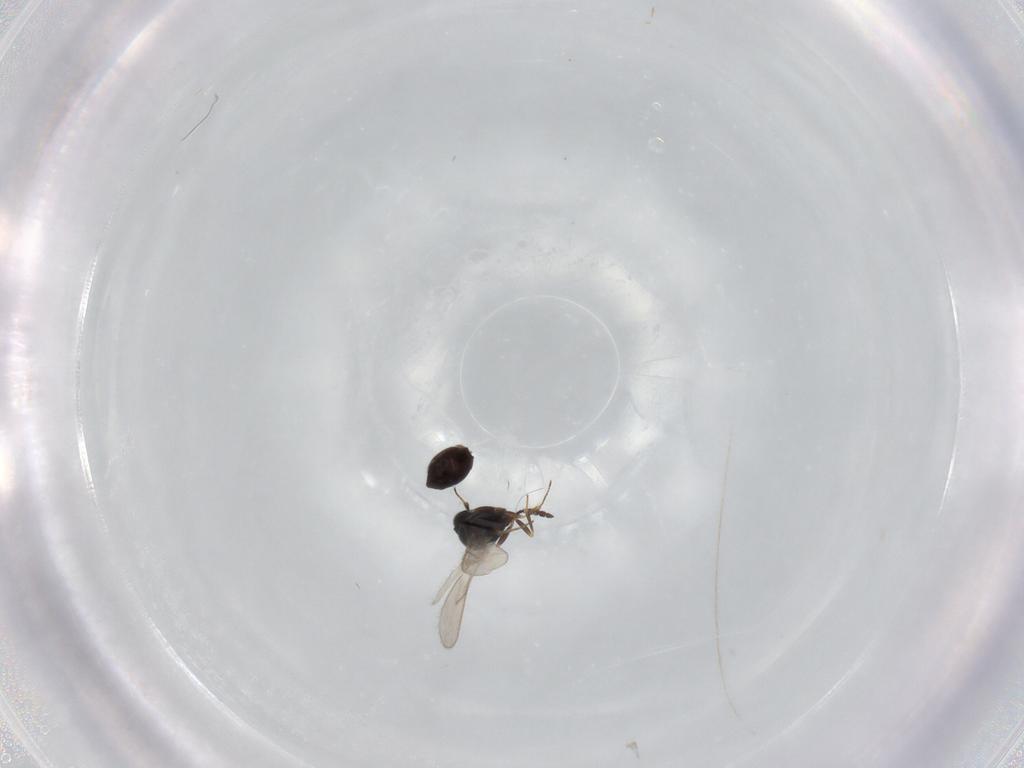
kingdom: Animalia
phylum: Arthropoda
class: Insecta
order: Hymenoptera
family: Scelionidae
